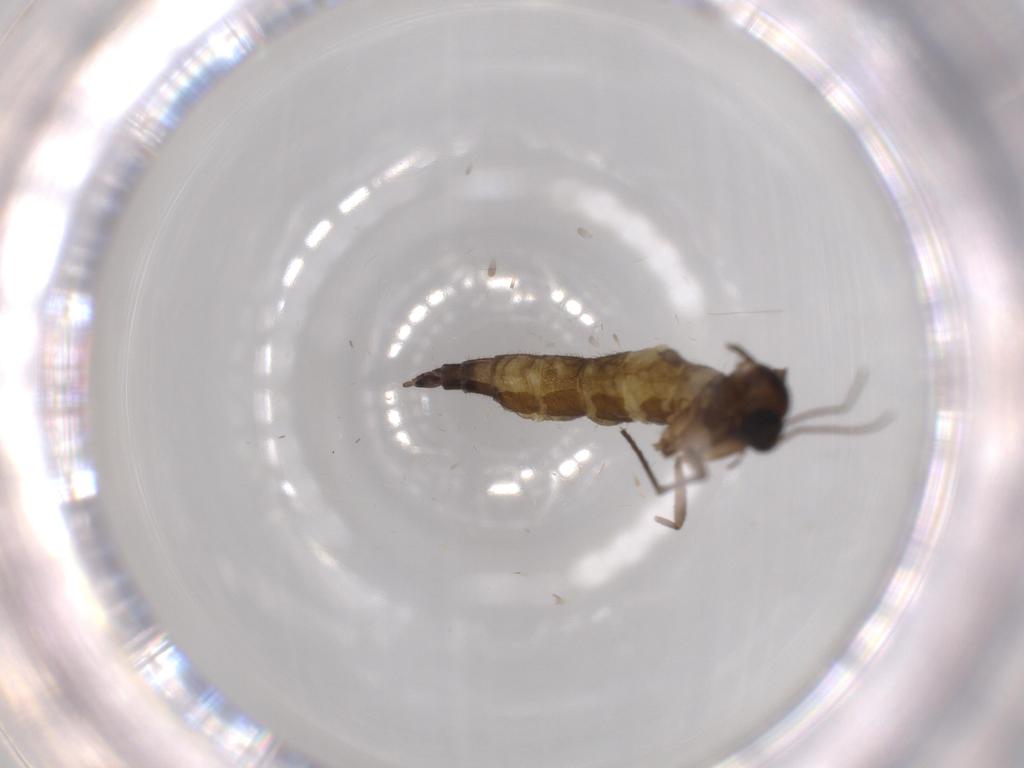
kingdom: Animalia
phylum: Arthropoda
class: Insecta
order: Diptera
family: Sciaridae
